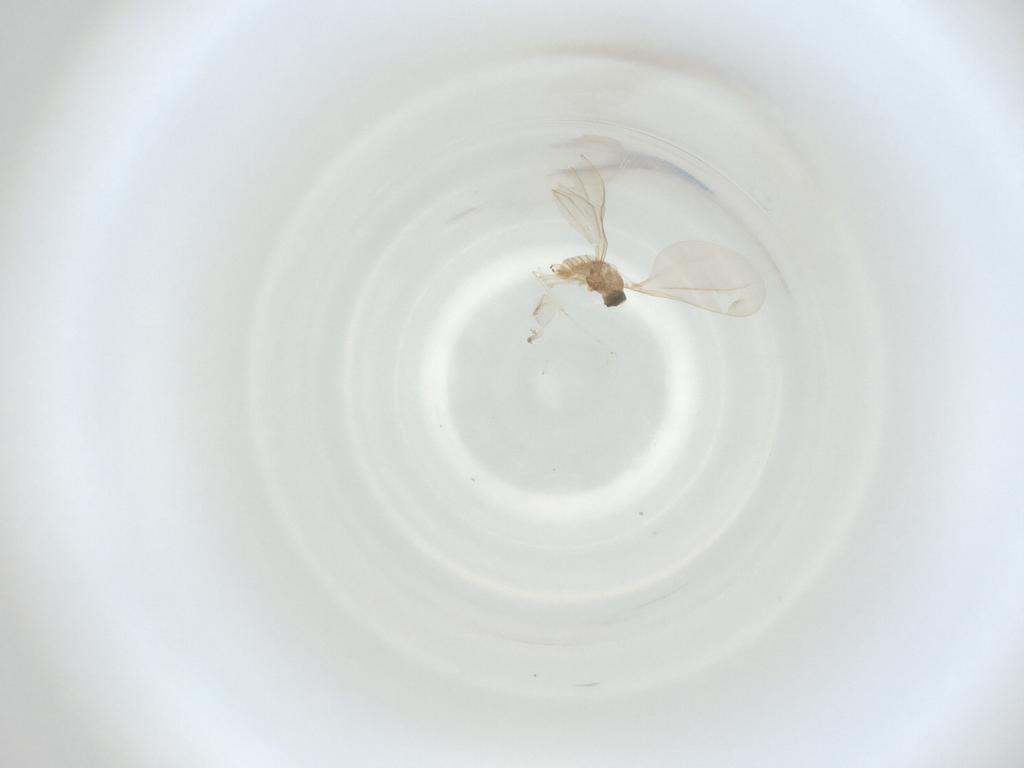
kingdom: Animalia
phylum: Arthropoda
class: Insecta
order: Diptera
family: Cecidomyiidae
